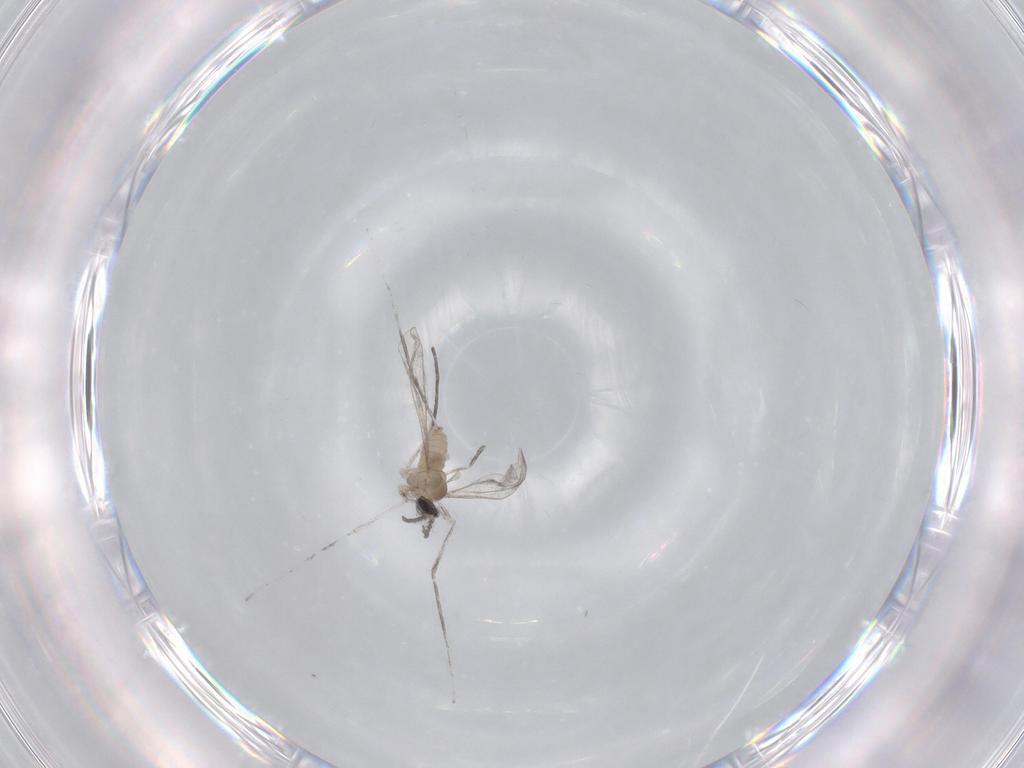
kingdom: Animalia
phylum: Arthropoda
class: Insecta
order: Diptera
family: Cecidomyiidae
